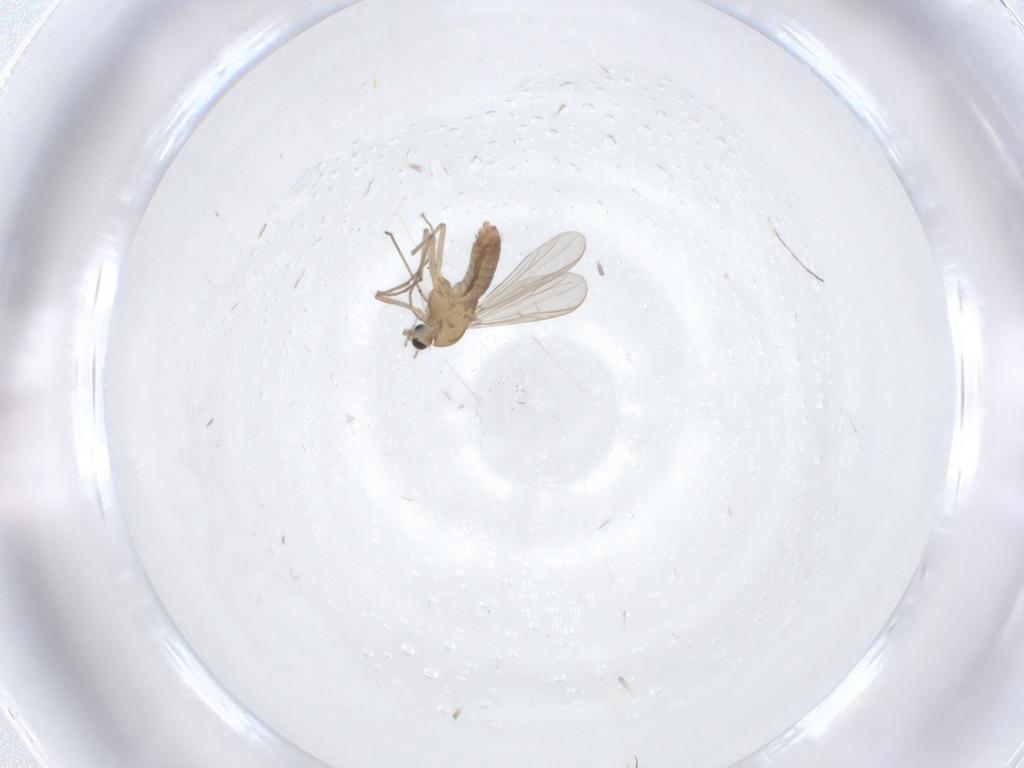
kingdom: Animalia
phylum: Arthropoda
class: Insecta
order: Diptera
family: Chironomidae
